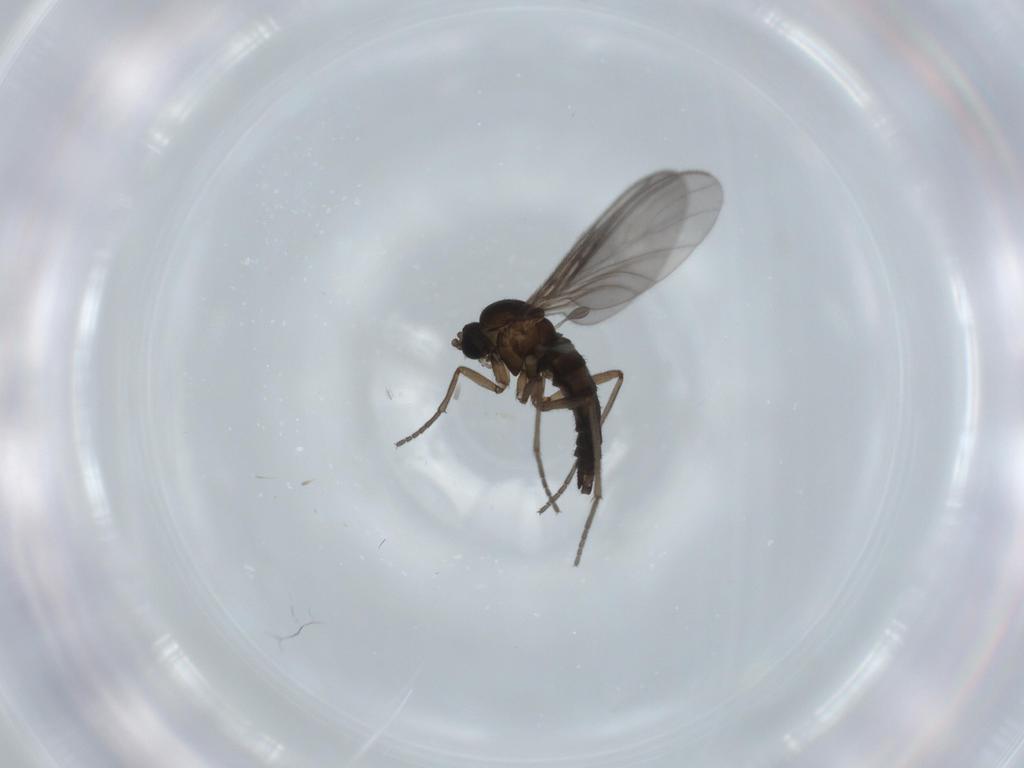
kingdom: Animalia
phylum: Arthropoda
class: Insecta
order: Diptera
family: Sciaridae
